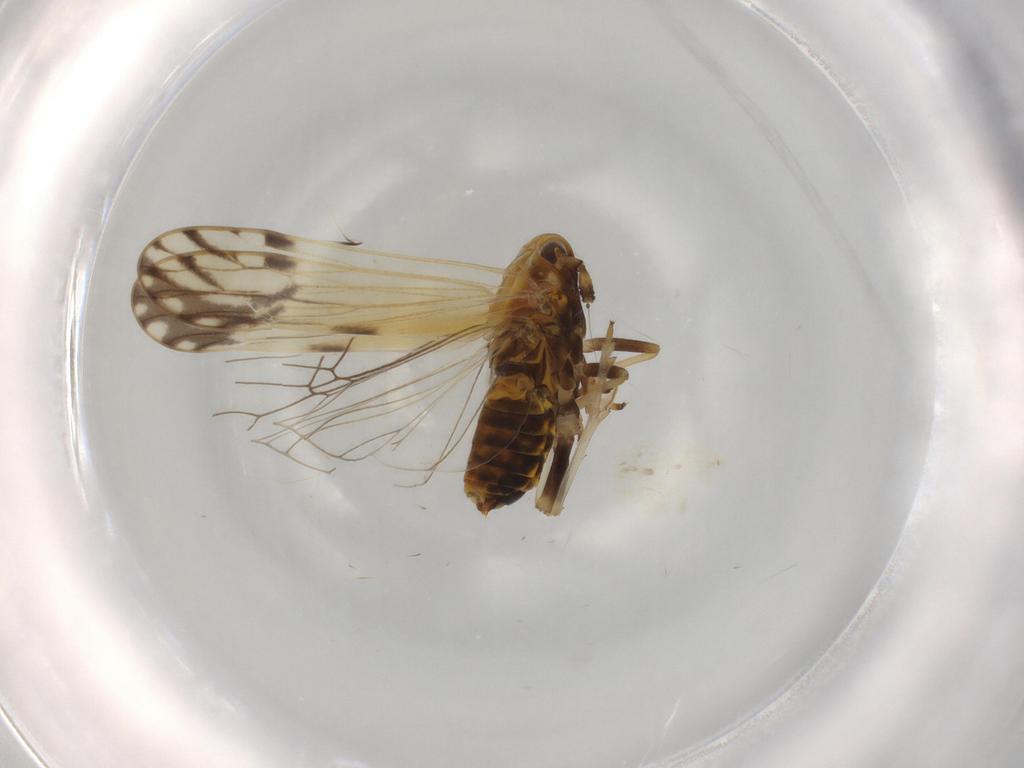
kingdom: Animalia
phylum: Arthropoda
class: Insecta
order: Hemiptera
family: Delphacidae
